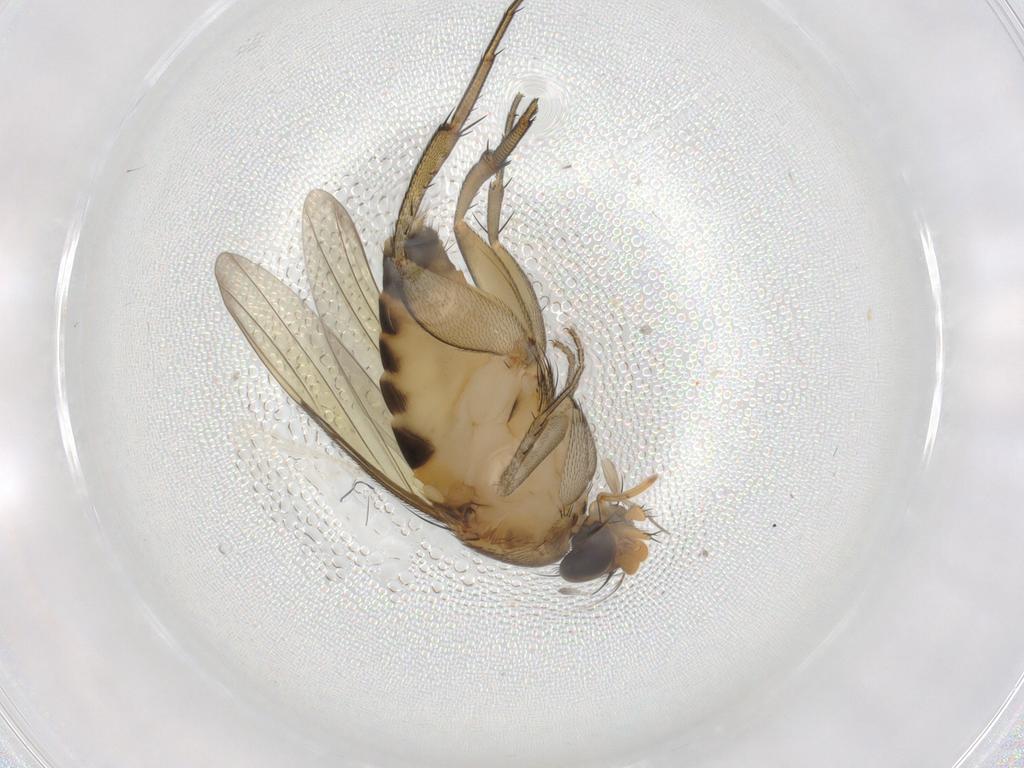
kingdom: Animalia
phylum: Arthropoda
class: Insecta
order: Diptera
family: Phoridae
